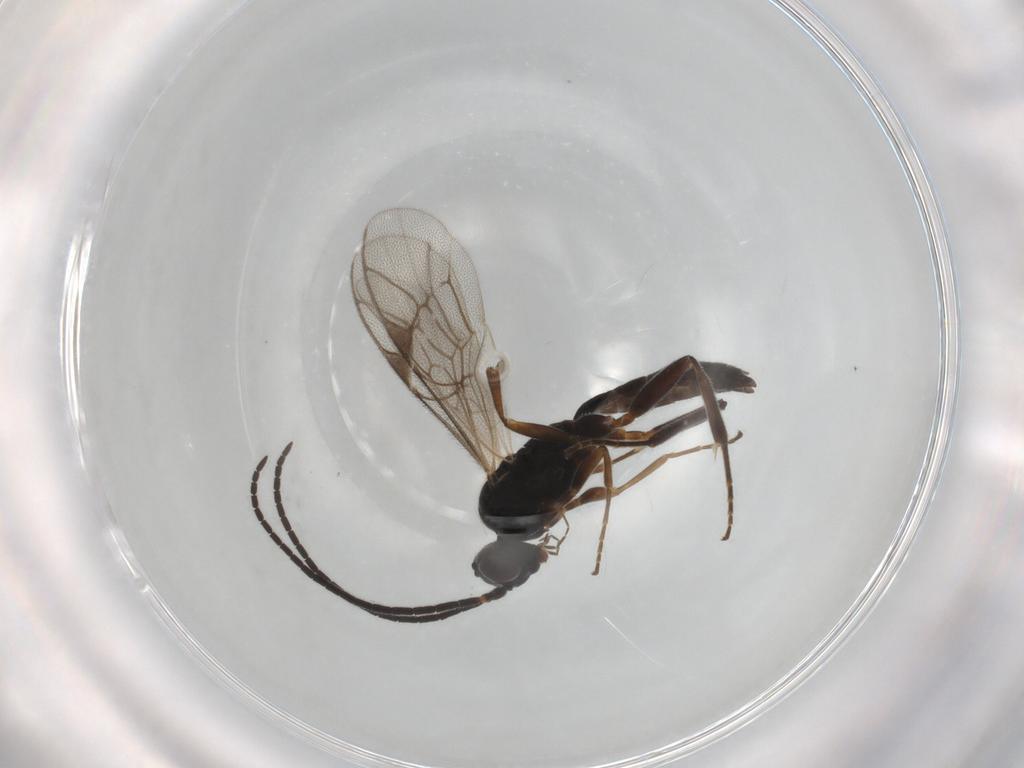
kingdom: Animalia
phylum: Arthropoda
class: Insecta
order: Hymenoptera
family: Ichneumonidae
